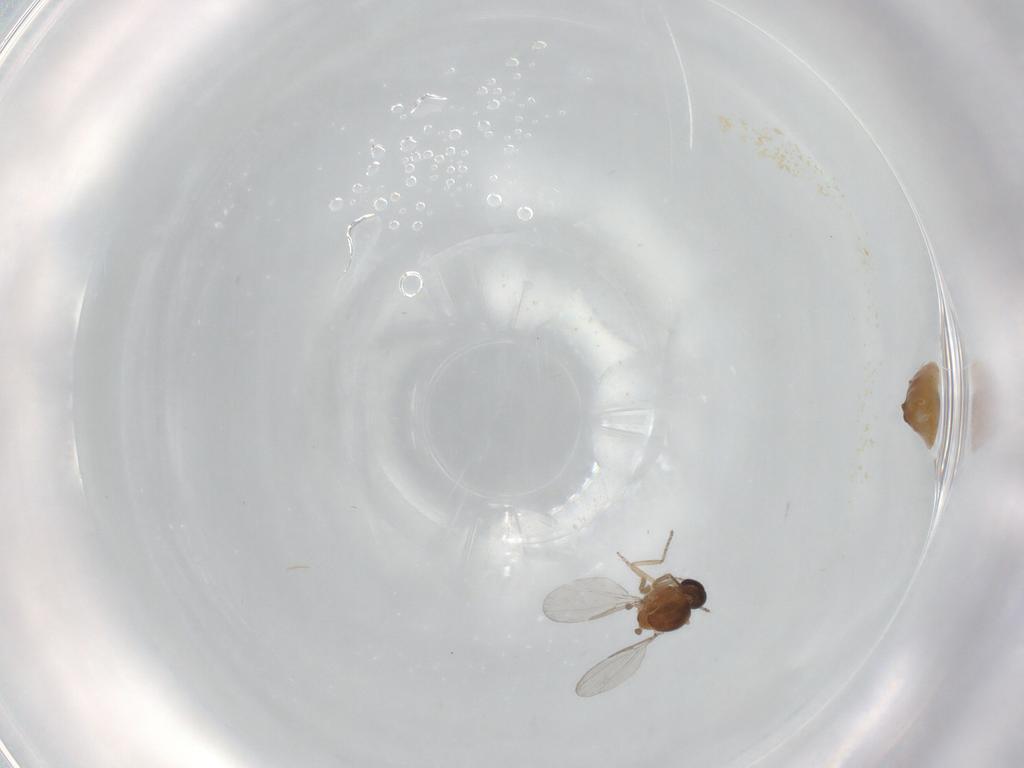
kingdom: Animalia
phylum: Arthropoda
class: Insecta
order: Diptera
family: Ceratopogonidae
